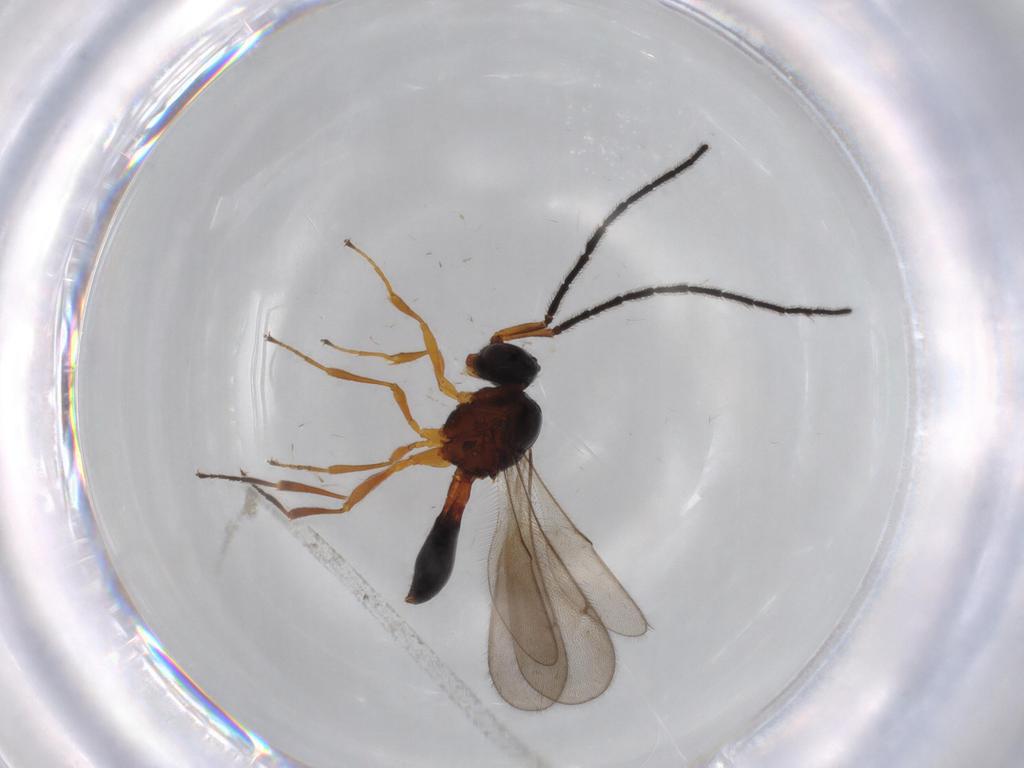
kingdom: Animalia
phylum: Arthropoda
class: Insecta
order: Hymenoptera
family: Scelionidae
